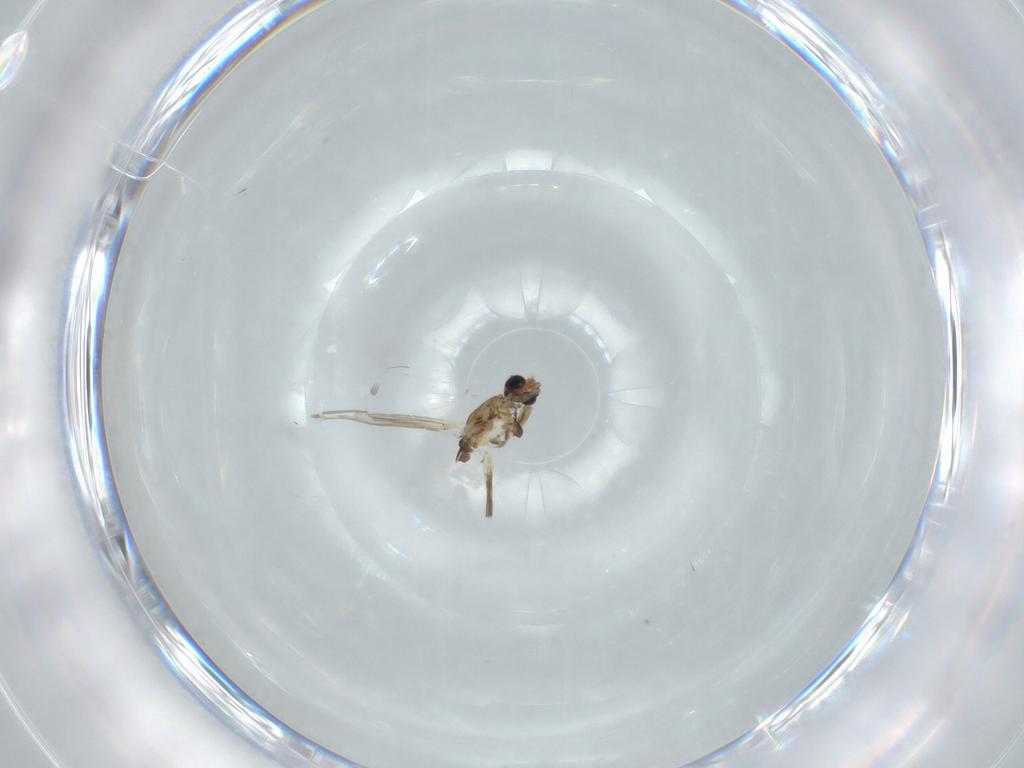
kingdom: Animalia
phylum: Arthropoda
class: Insecta
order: Diptera
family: Chironomidae
